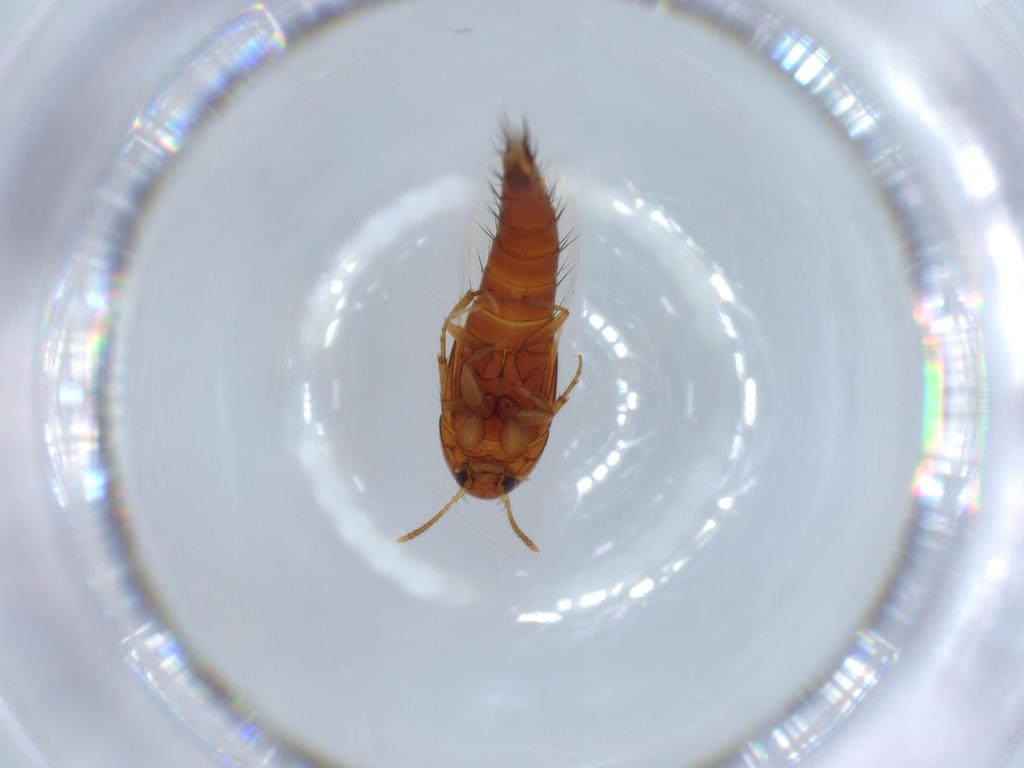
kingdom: Animalia
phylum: Arthropoda
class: Insecta
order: Coleoptera
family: Staphylinidae
